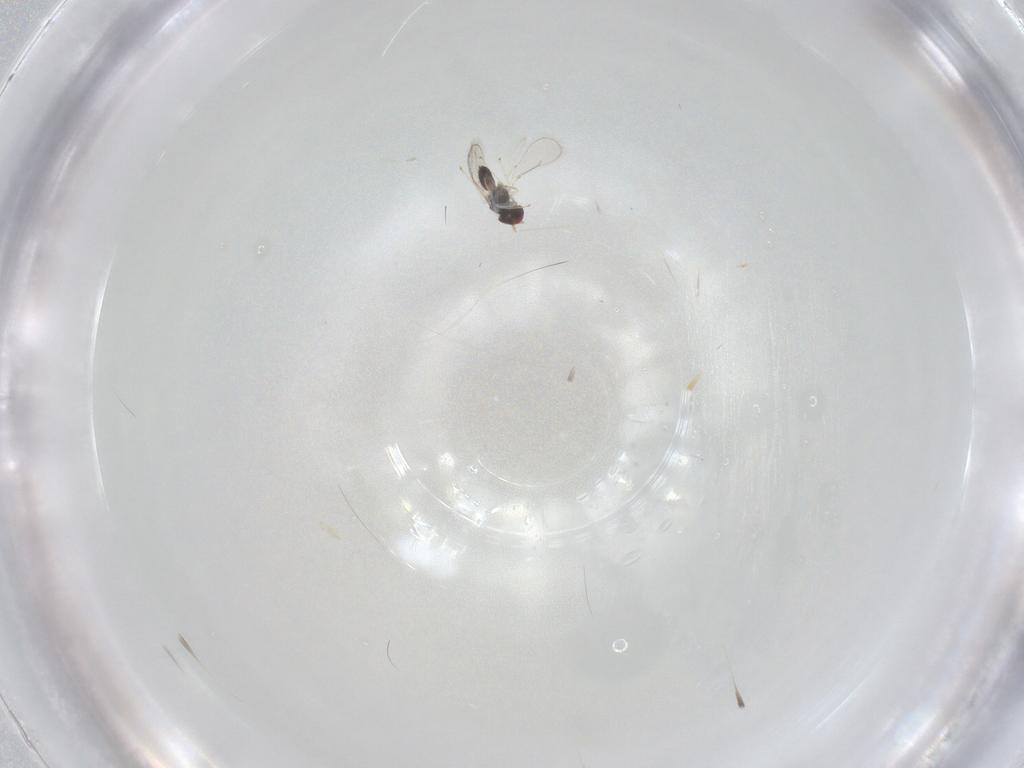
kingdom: Animalia
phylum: Arthropoda
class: Insecta
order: Hymenoptera
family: Eulophidae
